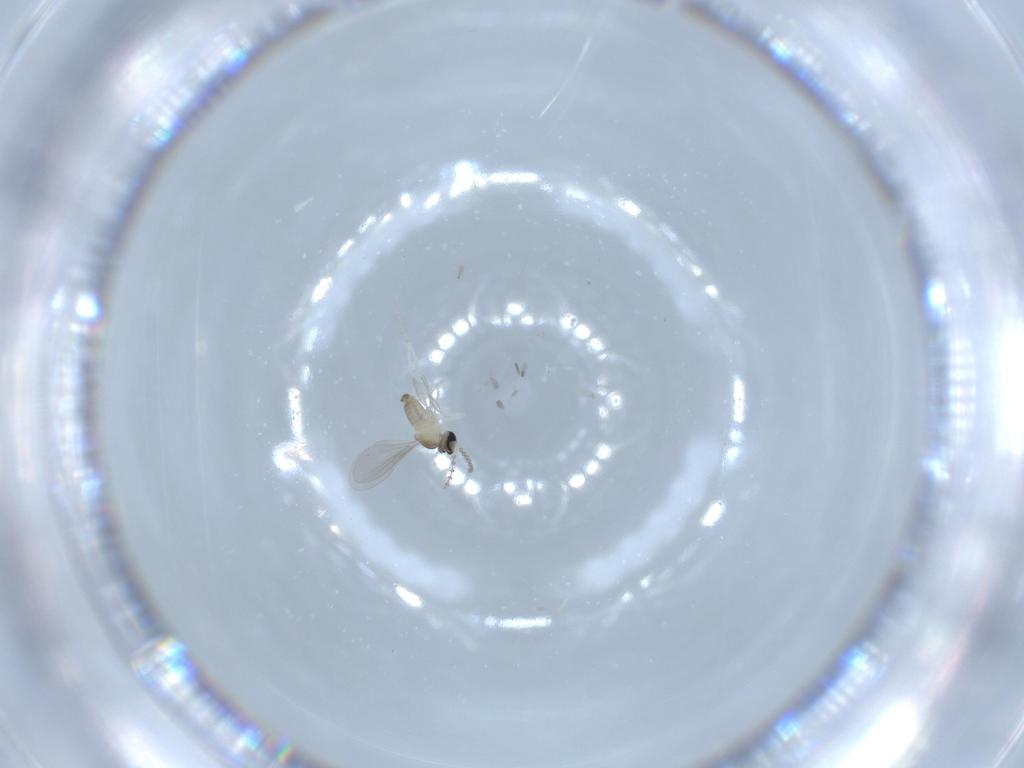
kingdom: Animalia
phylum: Arthropoda
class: Insecta
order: Diptera
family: Cecidomyiidae
